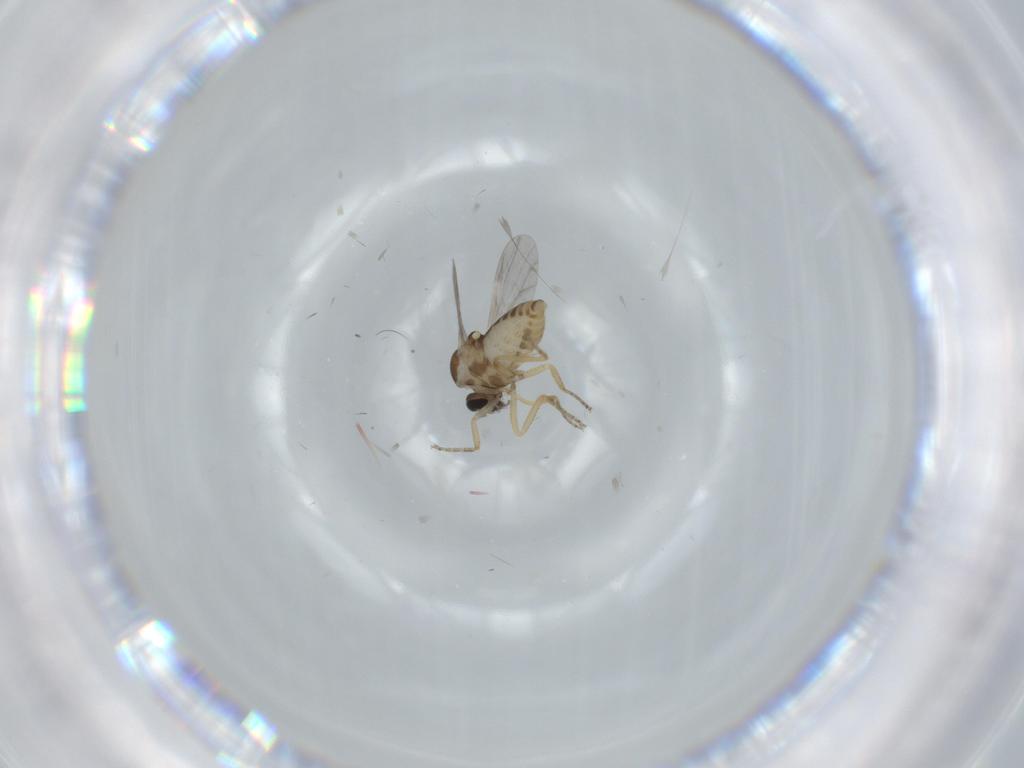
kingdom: Animalia
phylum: Arthropoda
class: Insecta
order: Diptera
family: Ceratopogonidae
